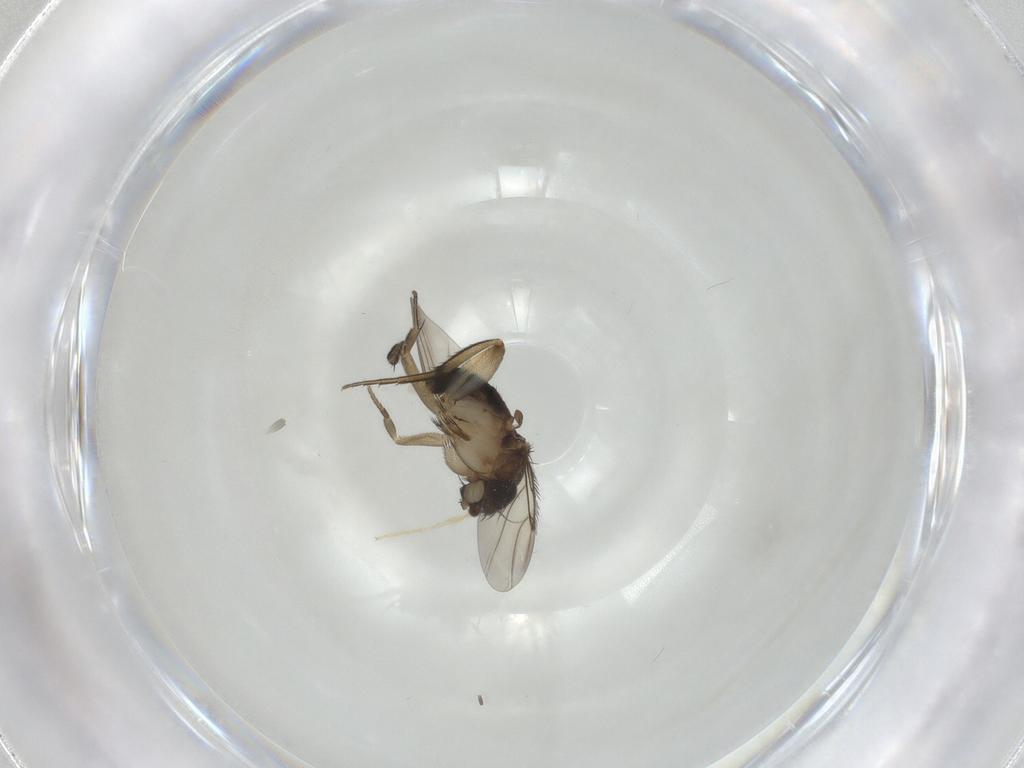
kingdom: Animalia
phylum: Arthropoda
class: Insecta
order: Diptera
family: Phoridae
